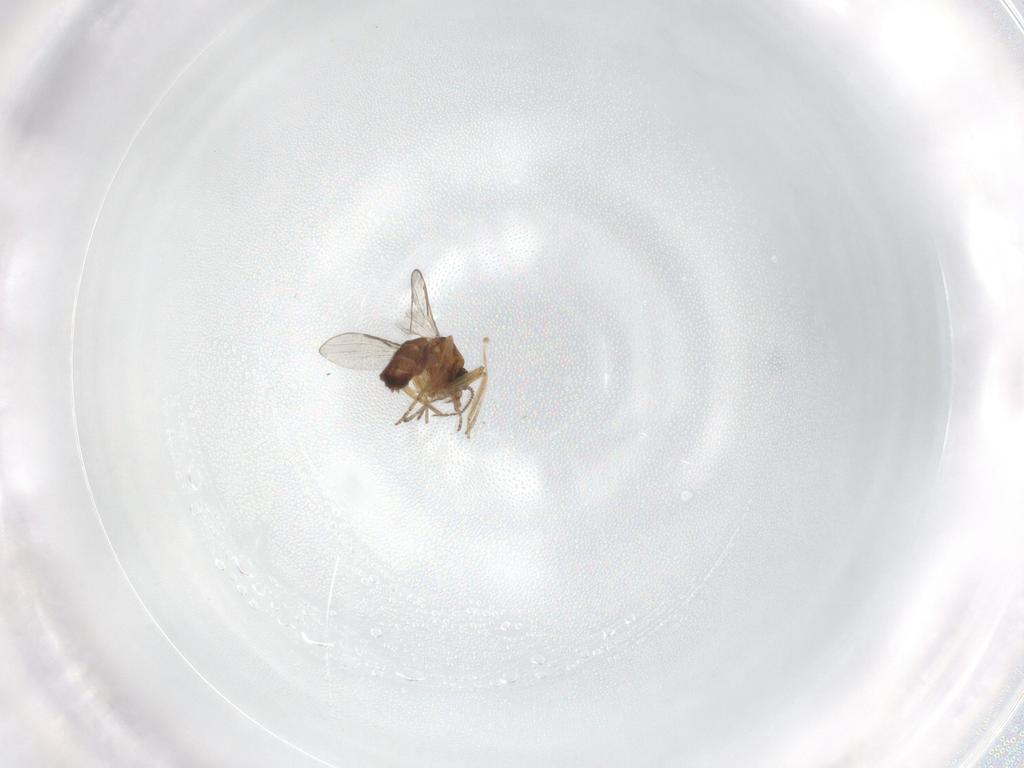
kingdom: Animalia
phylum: Arthropoda
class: Insecta
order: Diptera
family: Ceratopogonidae
